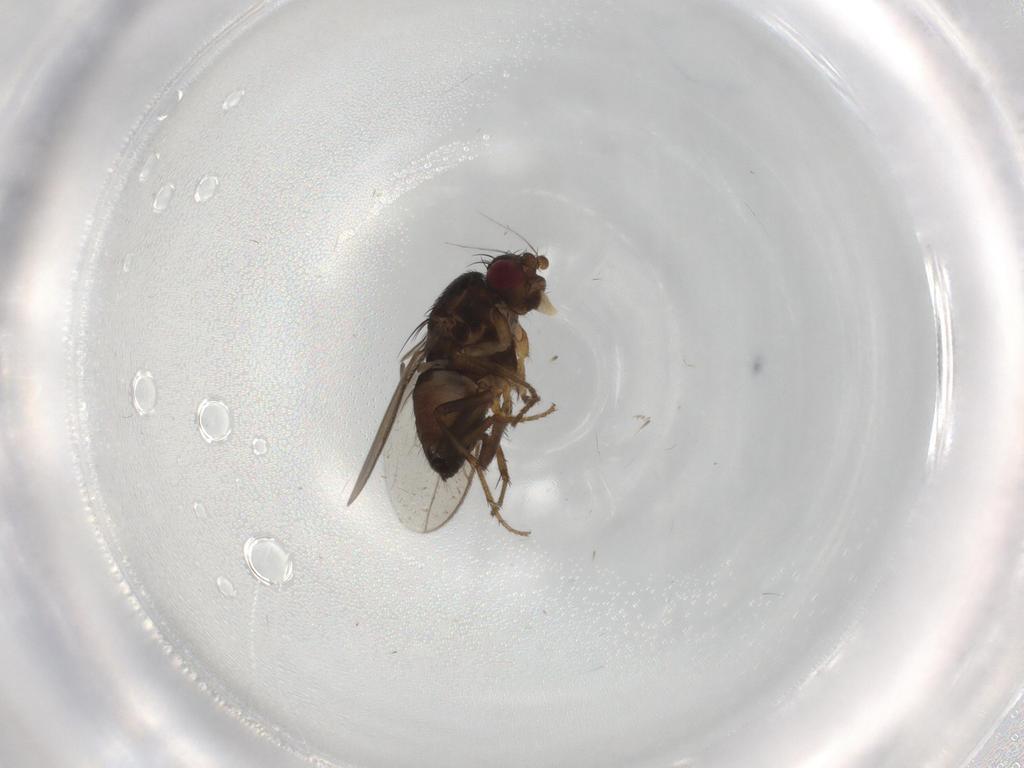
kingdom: Animalia
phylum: Arthropoda
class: Insecta
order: Diptera
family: Sphaeroceridae
